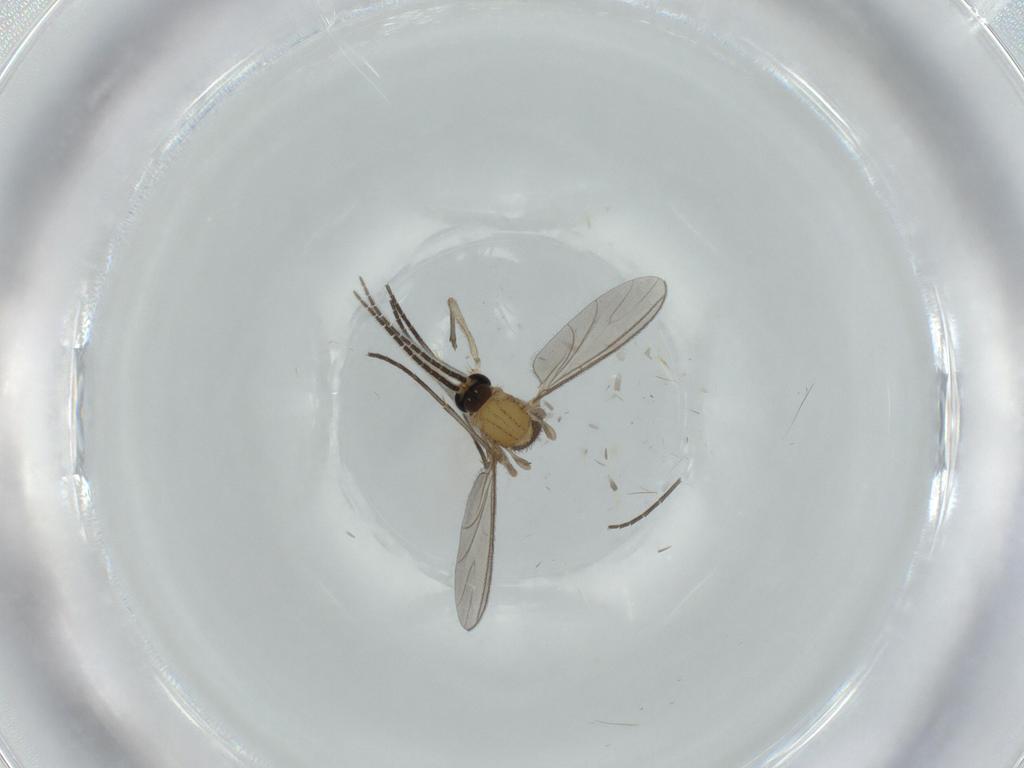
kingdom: Animalia
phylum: Arthropoda
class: Insecta
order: Diptera
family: Sciaridae
